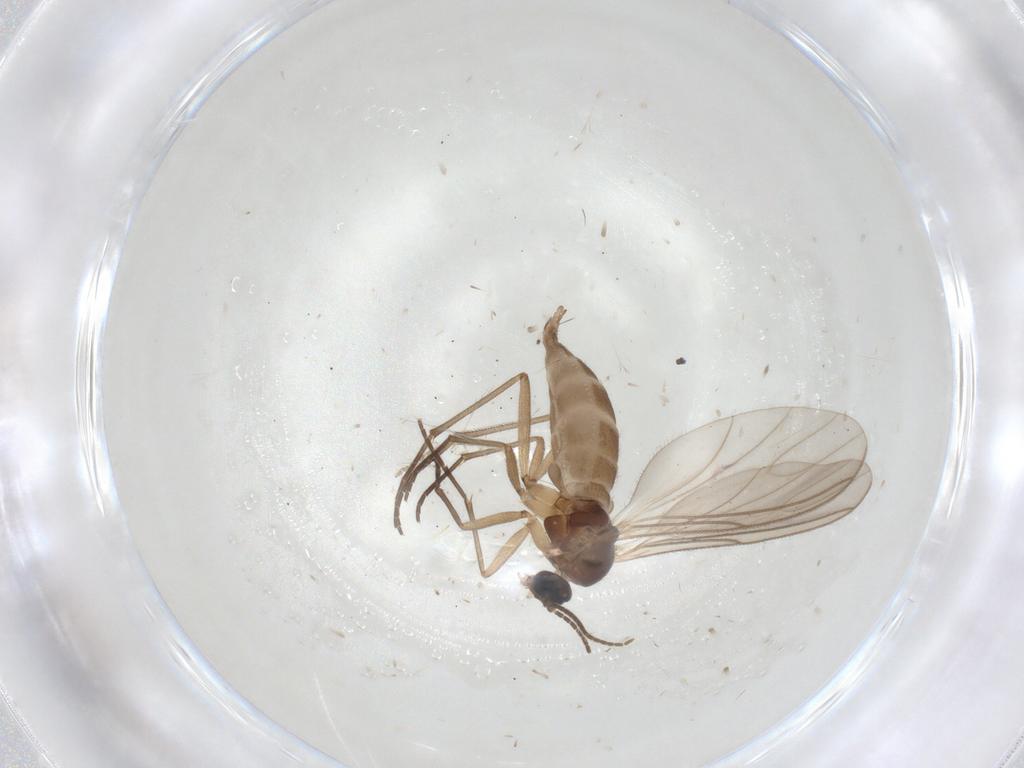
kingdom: Animalia
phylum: Arthropoda
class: Insecta
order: Diptera
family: Sciaridae
